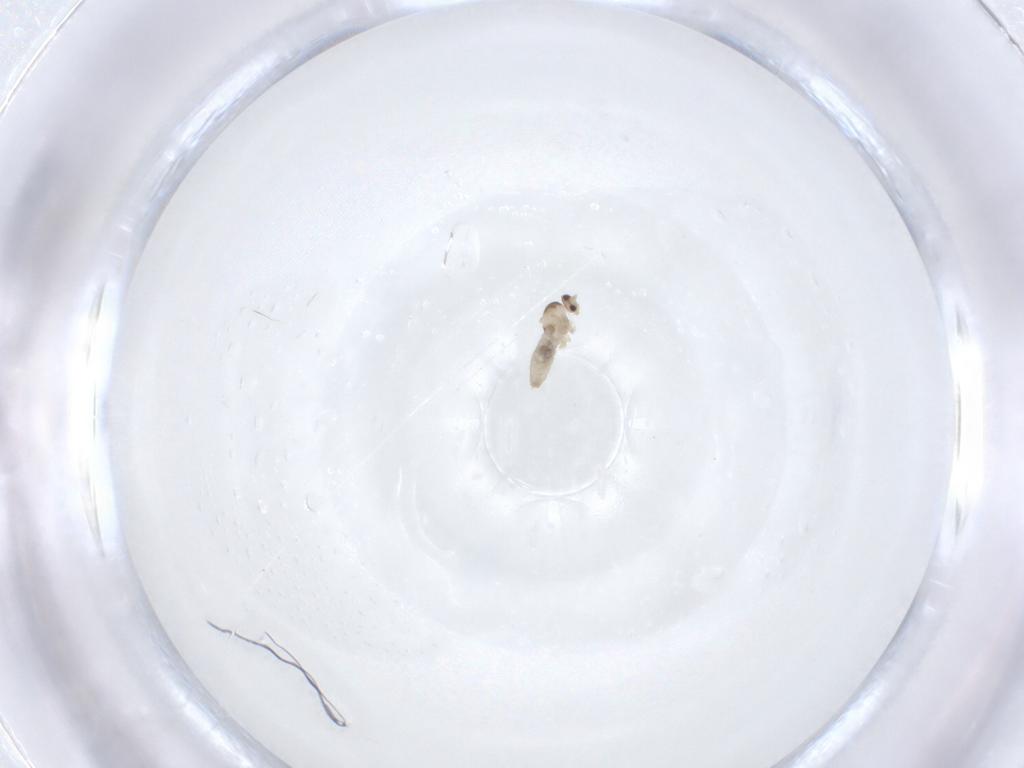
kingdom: Animalia
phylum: Arthropoda
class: Insecta
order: Diptera
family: Cecidomyiidae
